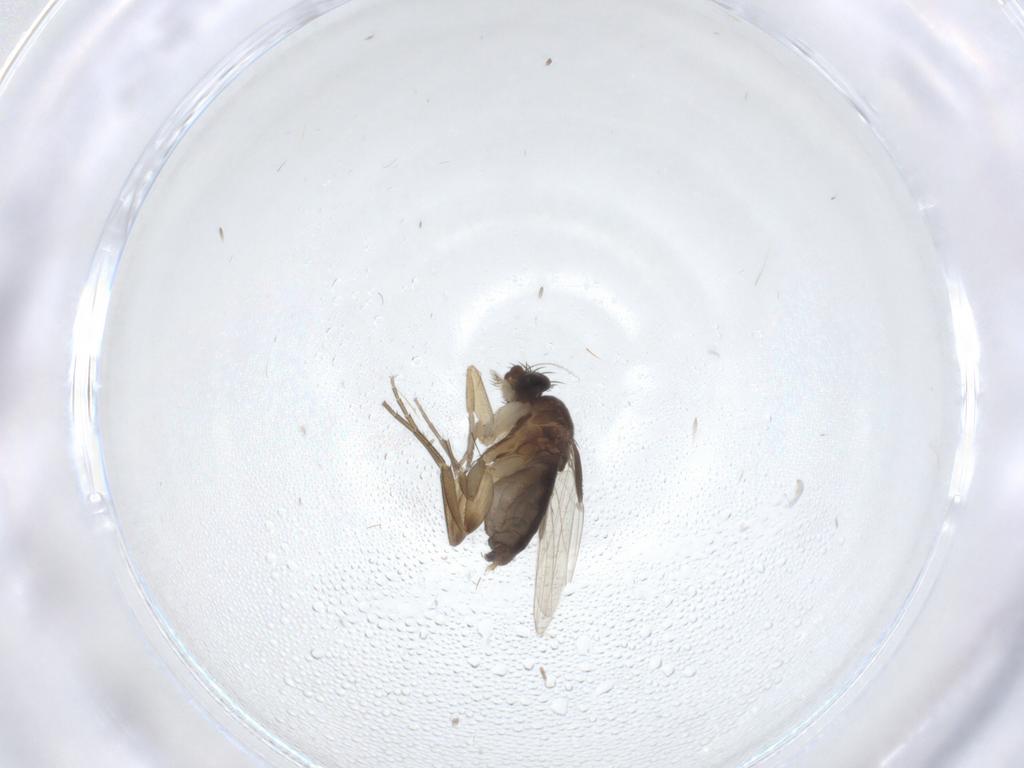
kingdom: Animalia
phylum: Arthropoda
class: Insecta
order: Diptera
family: Phoridae
